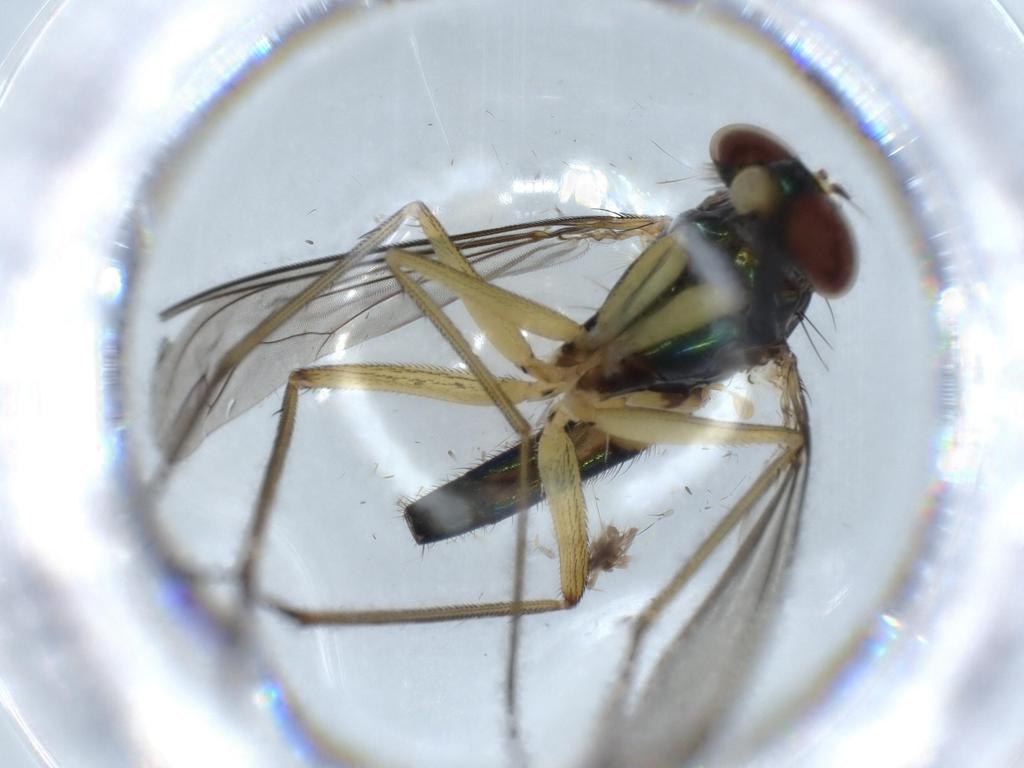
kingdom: Animalia
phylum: Arthropoda
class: Insecta
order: Diptera
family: Dolichopodidae
